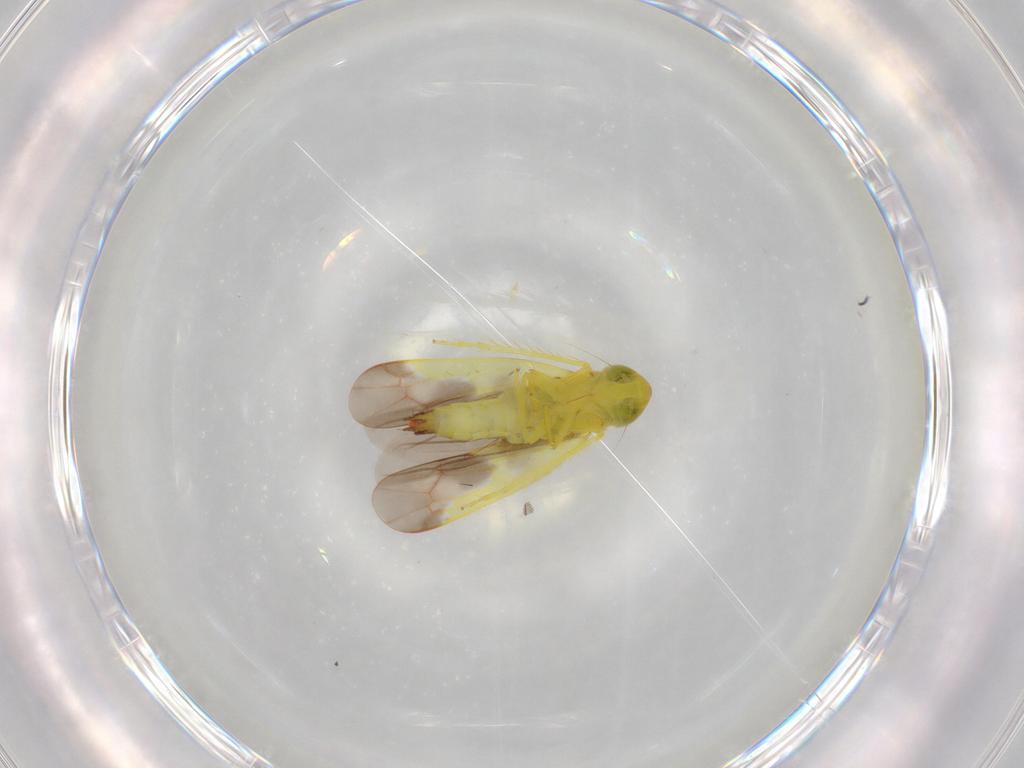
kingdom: Animalia
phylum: Arthropoda
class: Insecta
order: Hemiptera
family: Cicadellidae
